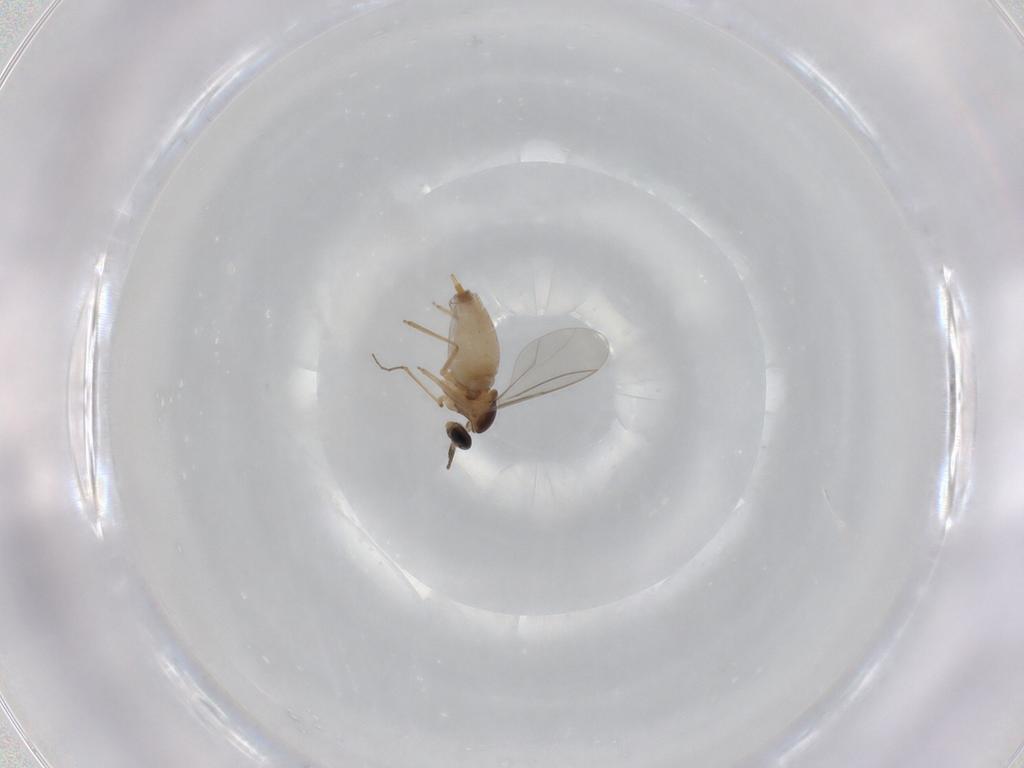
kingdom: Animalia
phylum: Arthropoda
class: Insecta
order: Diptera
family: Cecidomyiidae
